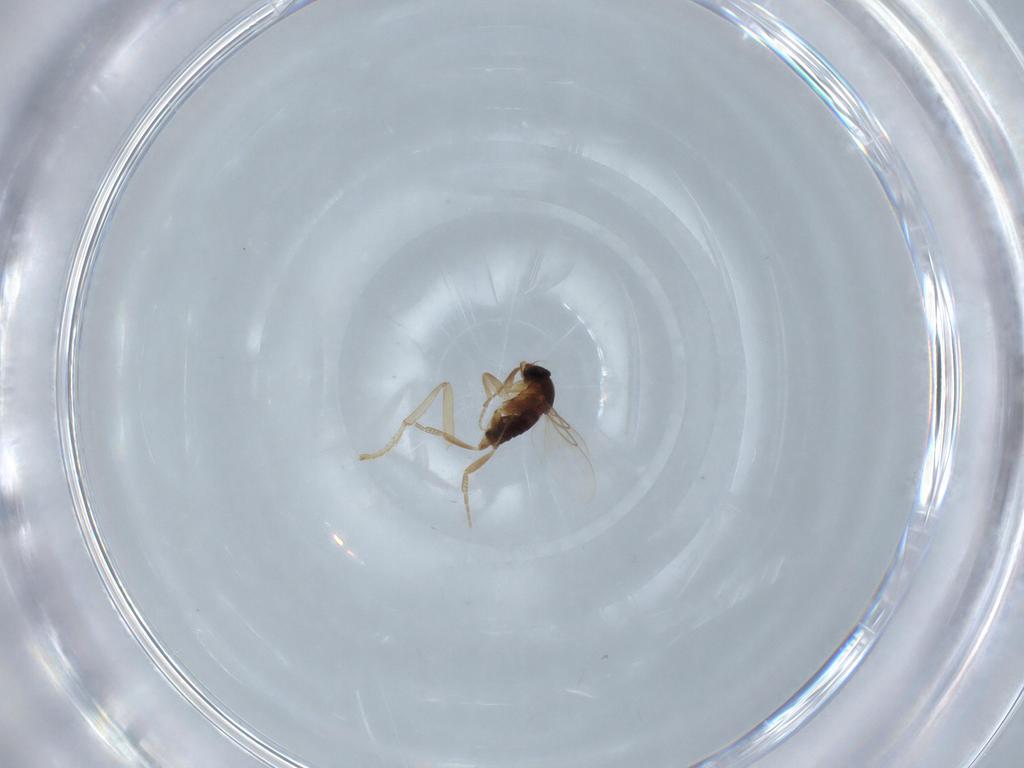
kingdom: Animalia
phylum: Arthropoda
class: Insecta
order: Diptera
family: Phoridae
